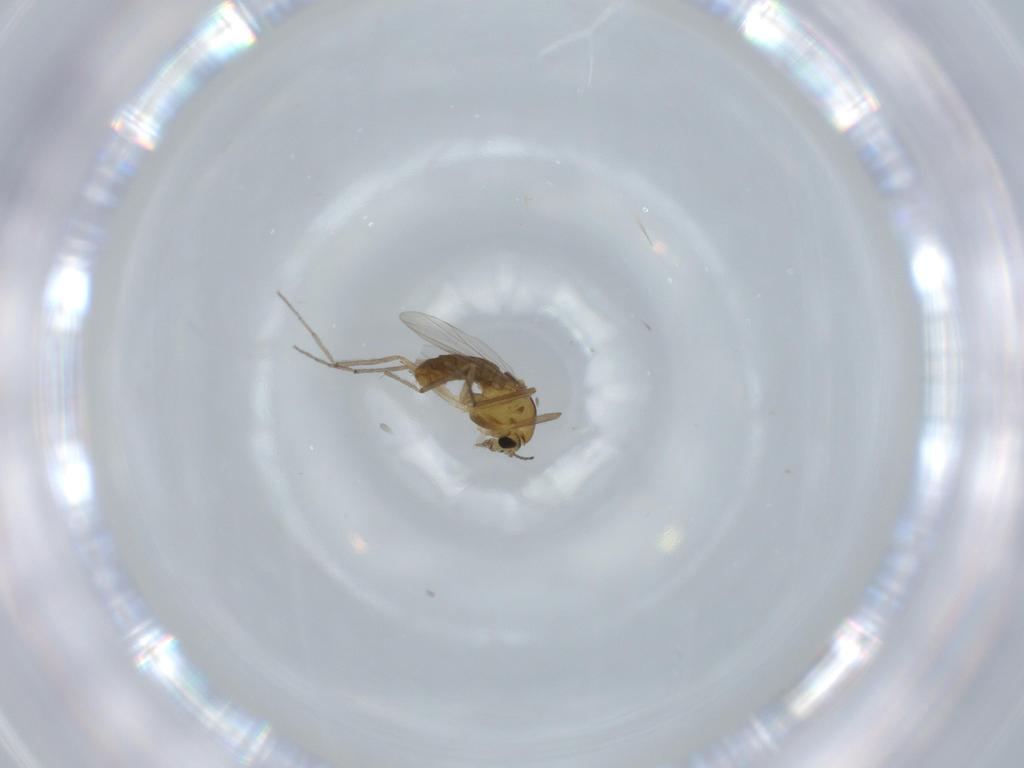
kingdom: Animalia
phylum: Arthropoda
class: Insecta
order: Diptera
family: Chironomidae
